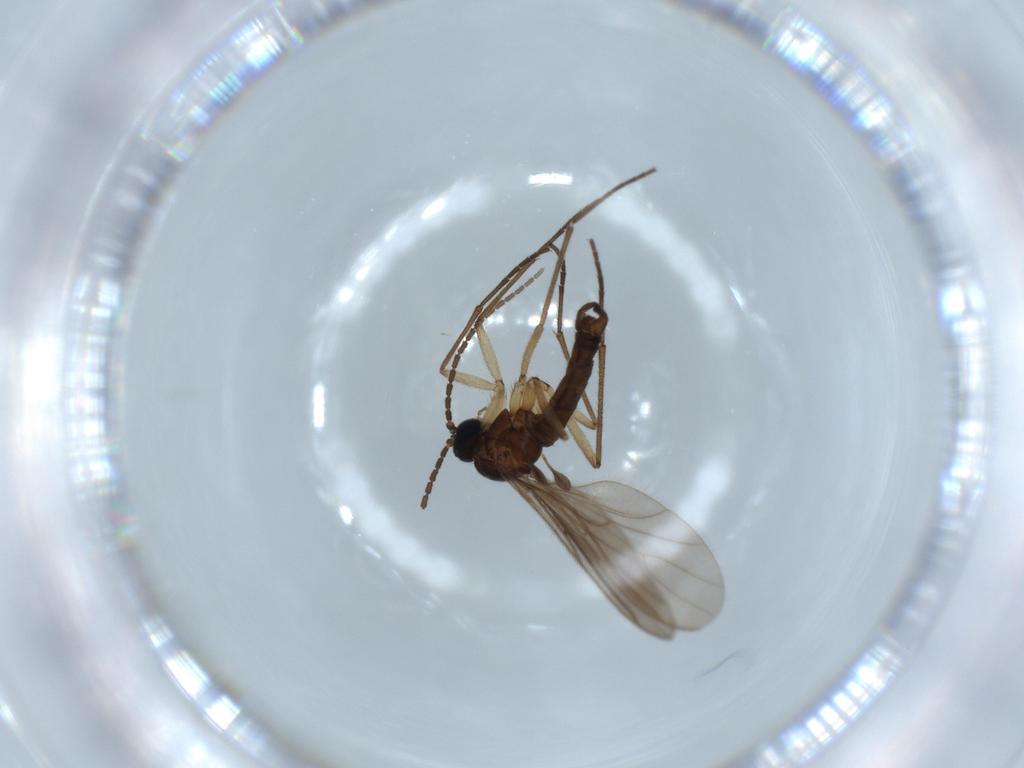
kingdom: Animalia
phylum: Arthropoda
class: Insecta
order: Diptera
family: Sciaridae
